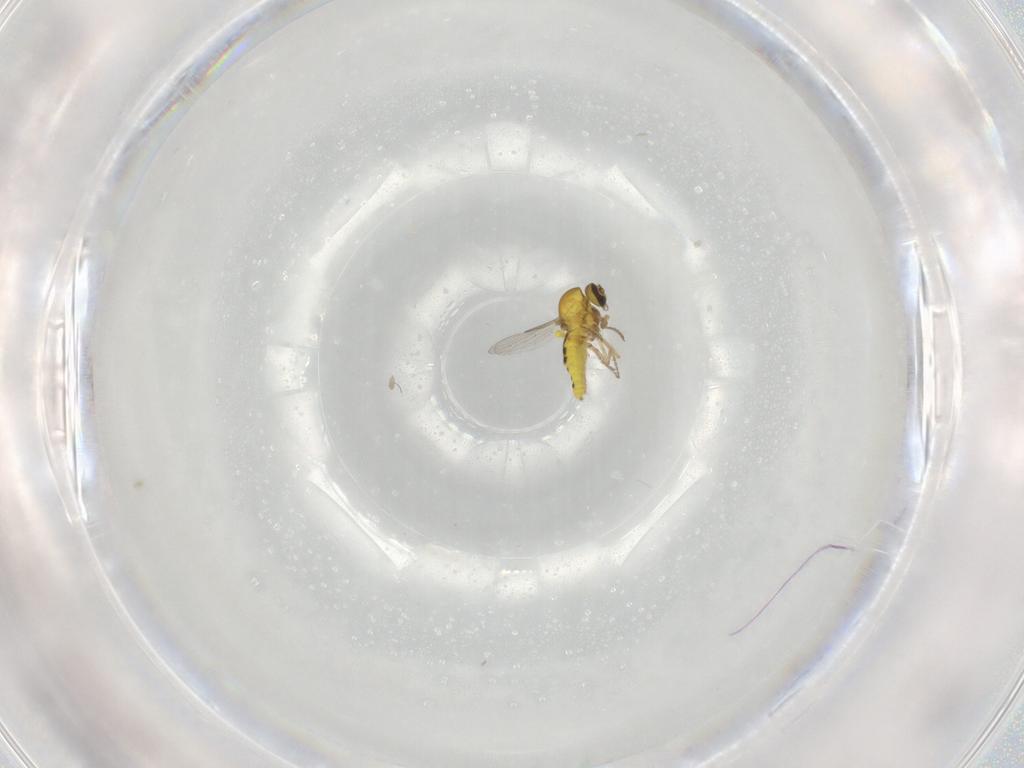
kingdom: Animalia
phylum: Arthropoda
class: Insecta
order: Diptera
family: Ceratopogonidae
